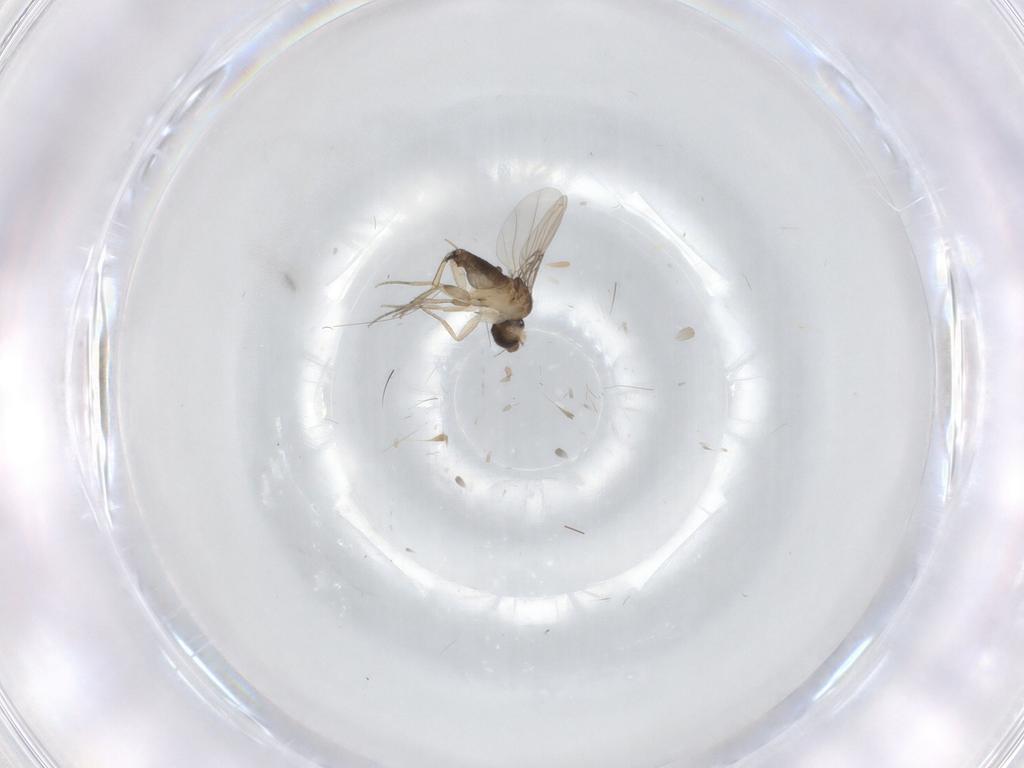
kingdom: Animalia
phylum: Arthropoda
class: Insecta
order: Diptera
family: Phoridae
